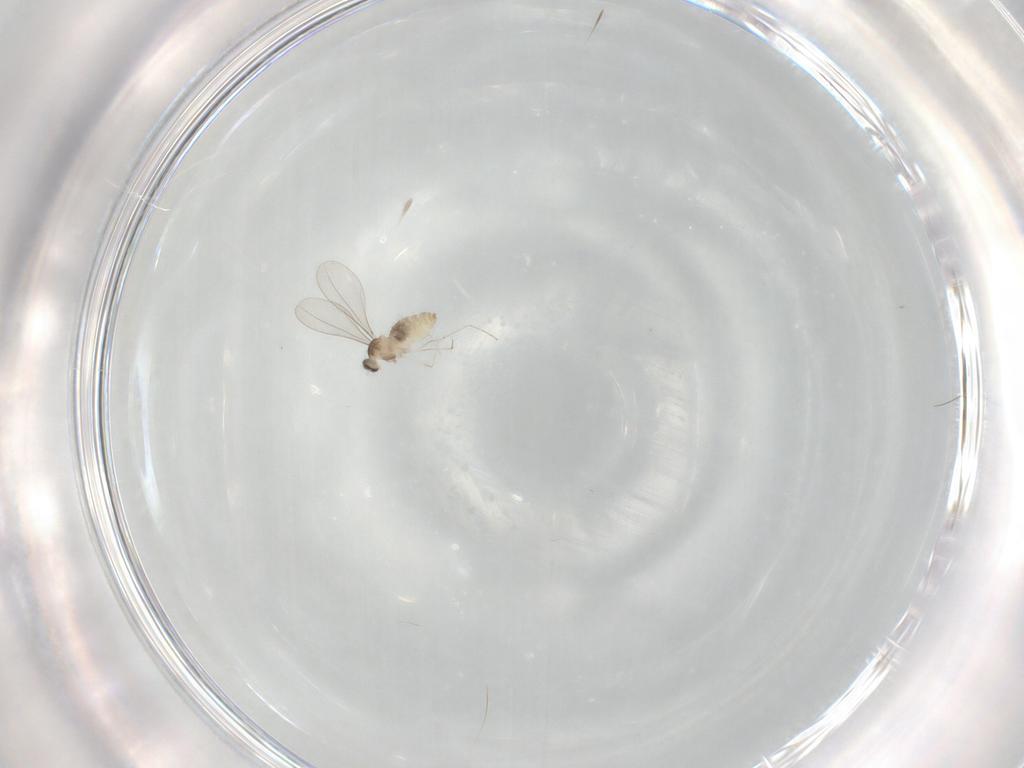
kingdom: Animalia
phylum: Arthropoda
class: Insecta
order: Diptera
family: Cecidomyiidae
